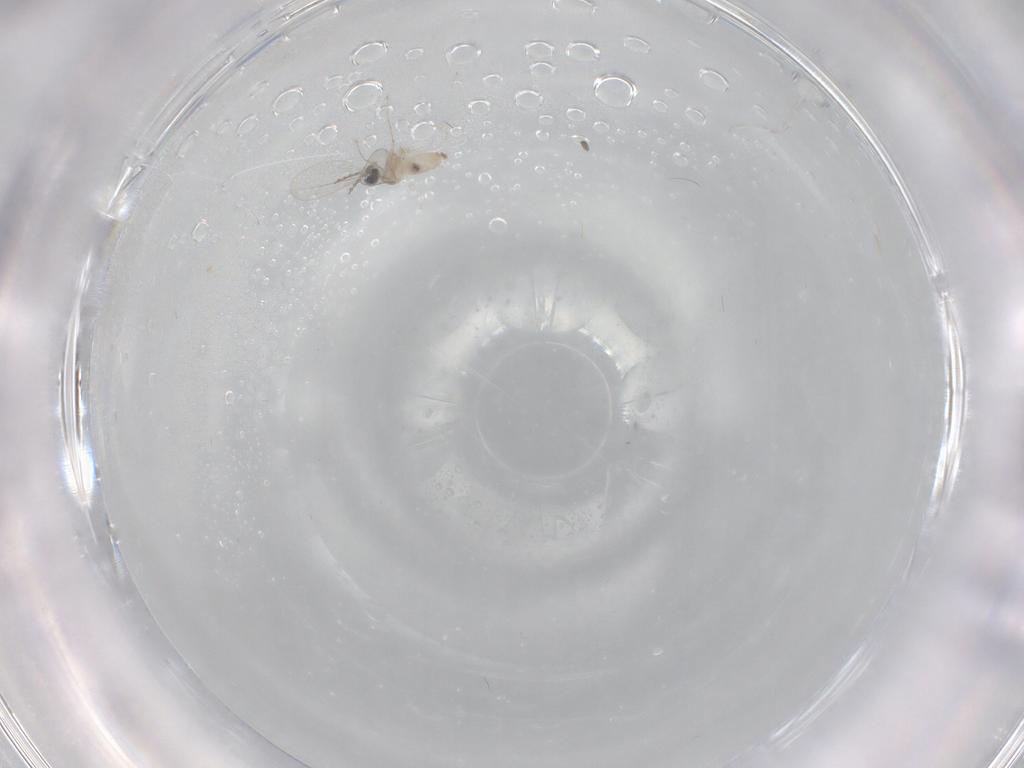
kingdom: Animalia
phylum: Arthropoda
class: Insecta
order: Diptera
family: Cecidomyiidae
